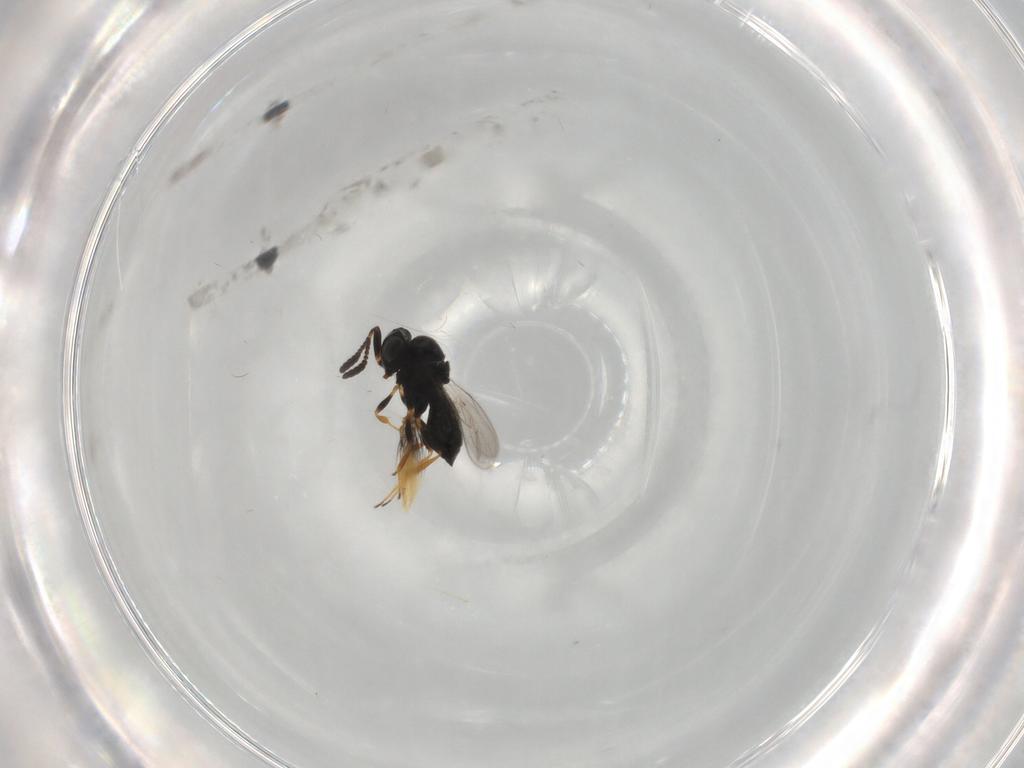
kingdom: Animalia
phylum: Arthropoda
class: Insecta
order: Hymenoptera
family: Scelionidae
